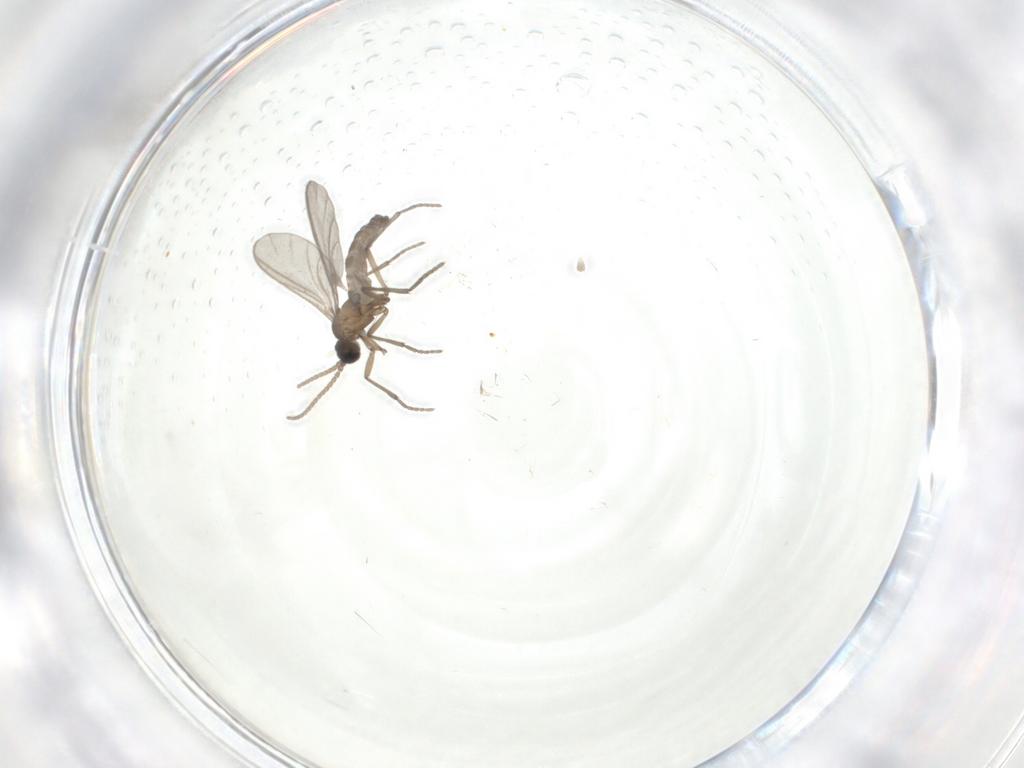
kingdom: Animalia
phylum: Arthropoda
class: Insecta
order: Diptera
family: Sciaridae
